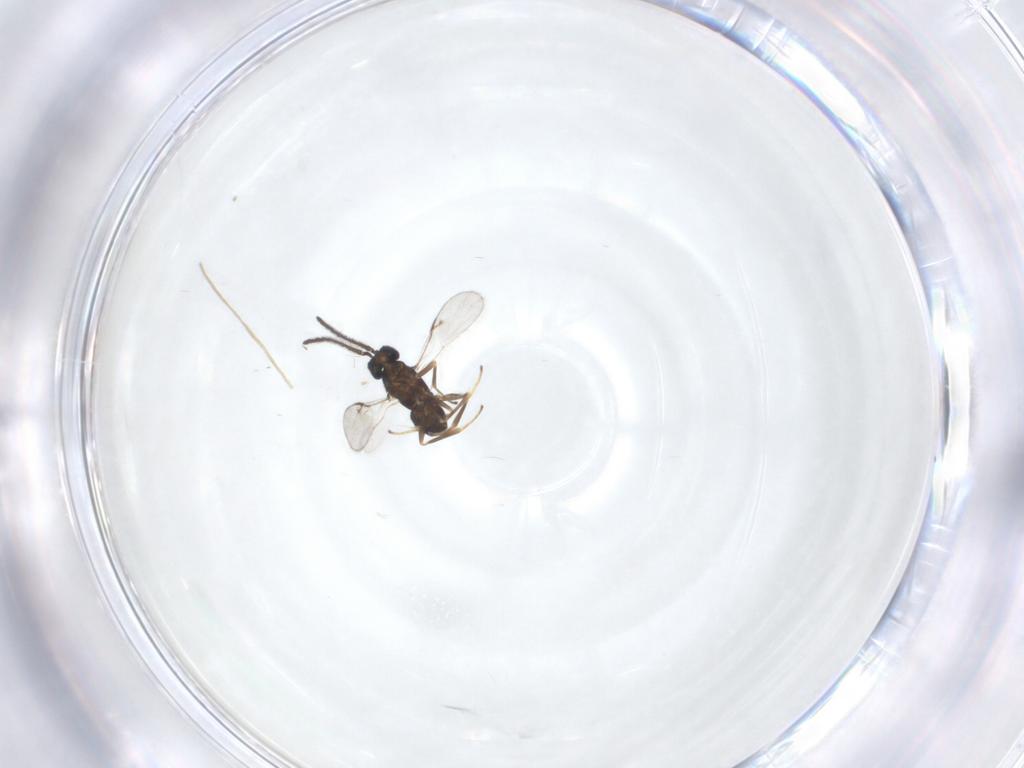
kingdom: Animalia
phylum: Arthropoda
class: Insecta
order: Hymenoptera
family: Encyrtidae
